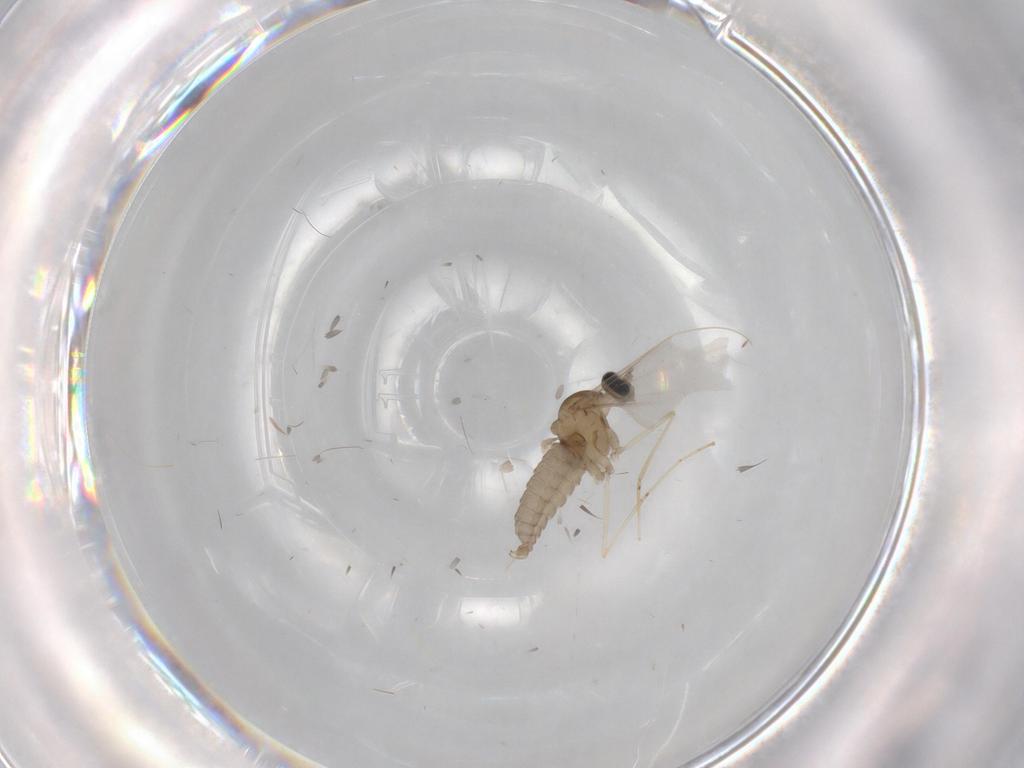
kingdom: Animalia
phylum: Arthropoda
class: Insecta
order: Diptera
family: Cecidomyiidae
